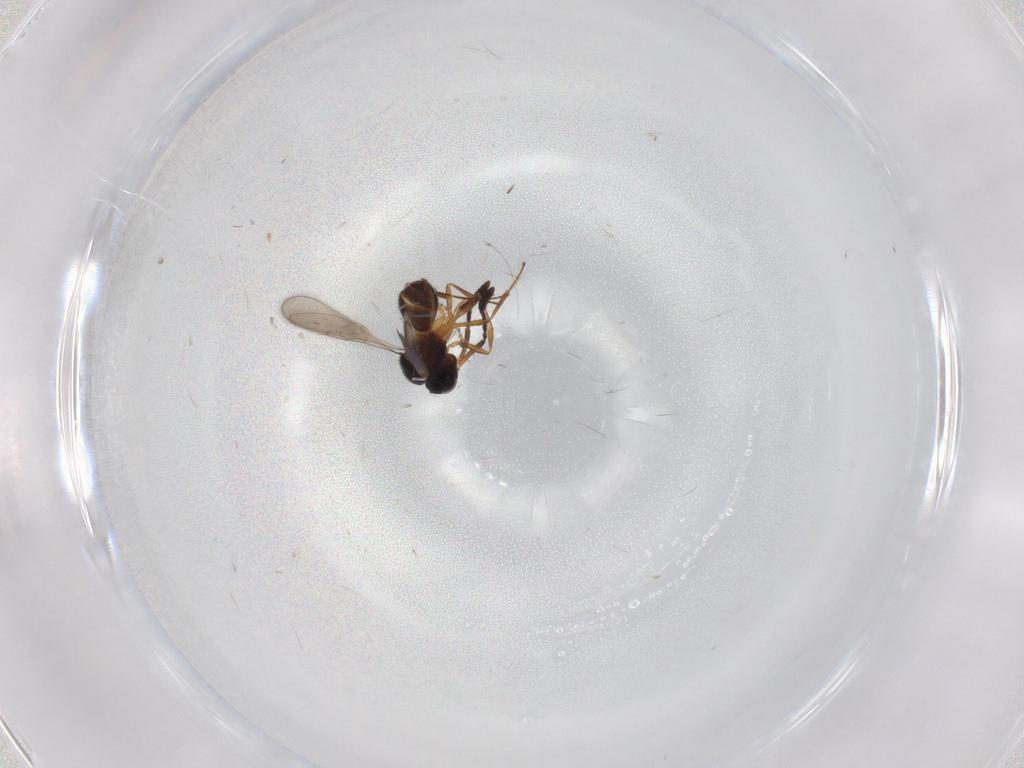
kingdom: Animalia
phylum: Arthropoda
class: Insecta
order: Hymenoptera
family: Scelionidae
